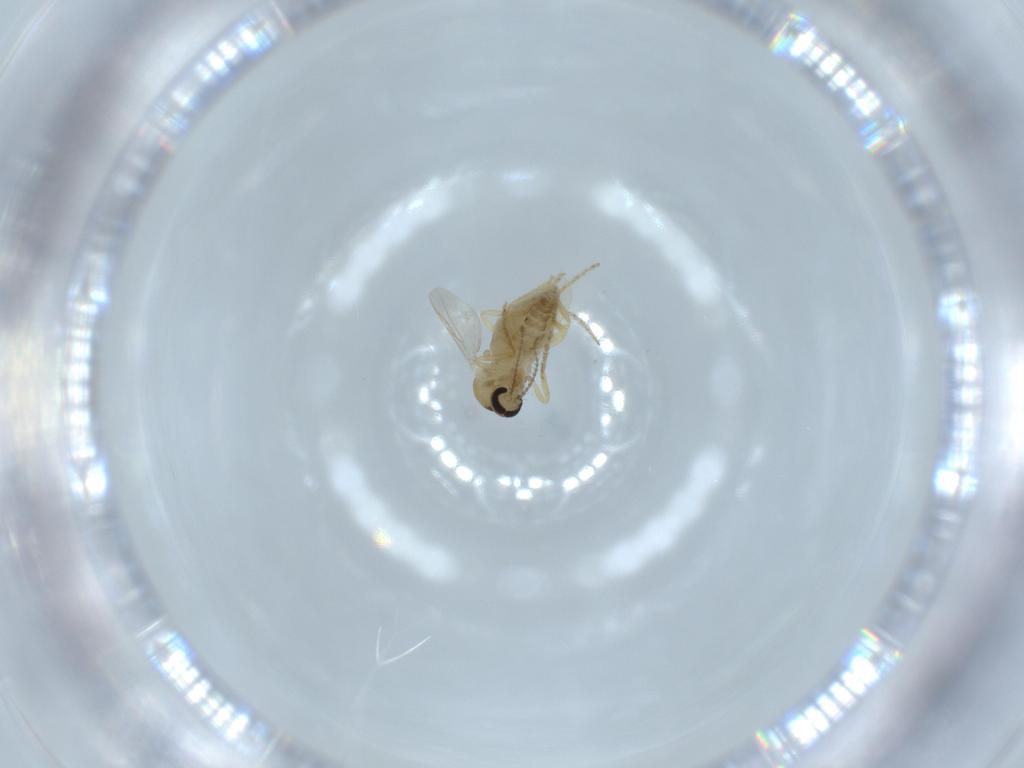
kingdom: Animalia
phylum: Arthropoda
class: Insecta
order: Diptera
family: Ceratopogonidae
